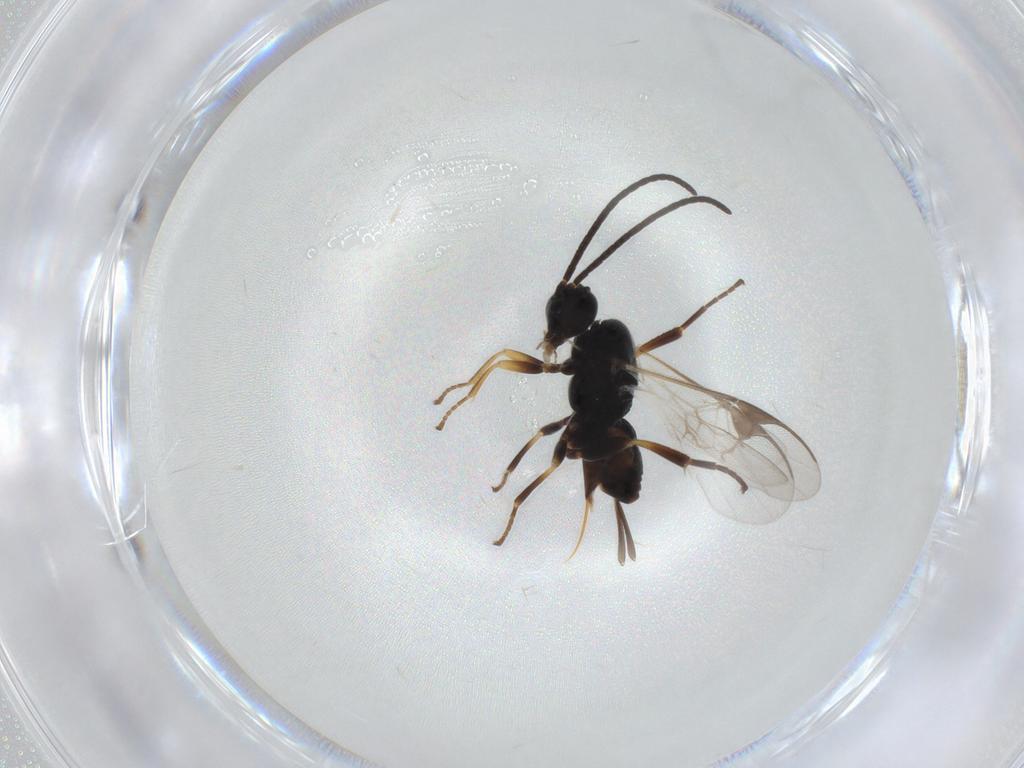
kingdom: Animalia
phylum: Arthropoda
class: Insecta
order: Hymenoptera
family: Braconidae
